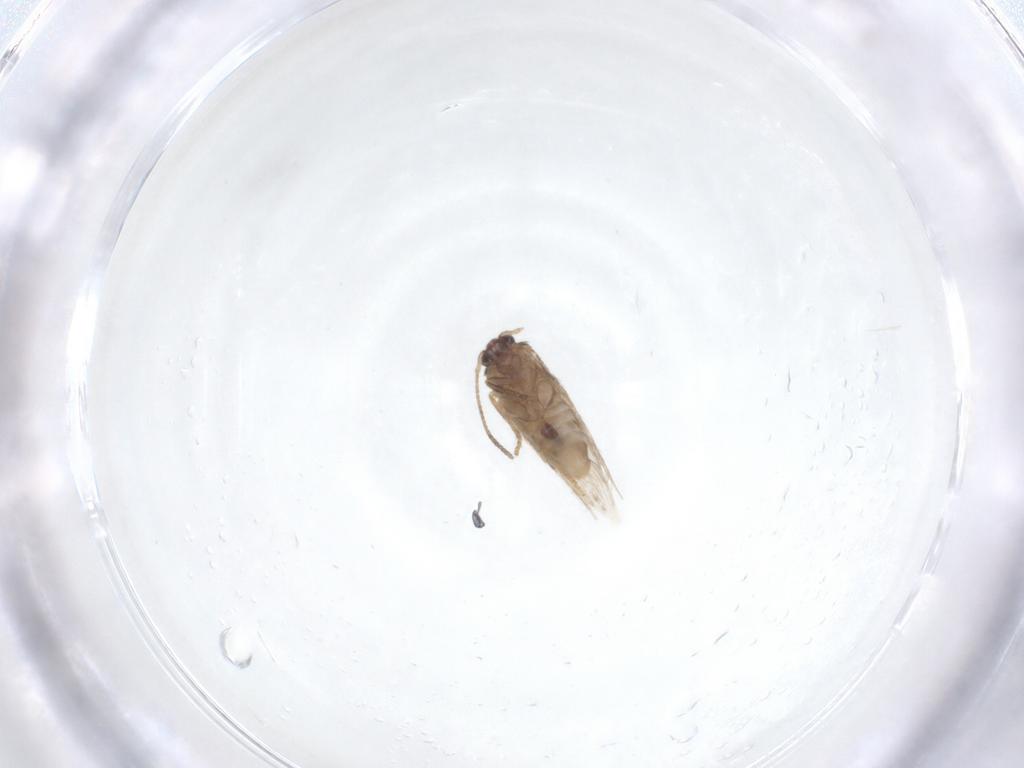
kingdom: Animalia
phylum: Arthropoda
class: Insecta
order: Lepidoptera
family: Nepticulidae
